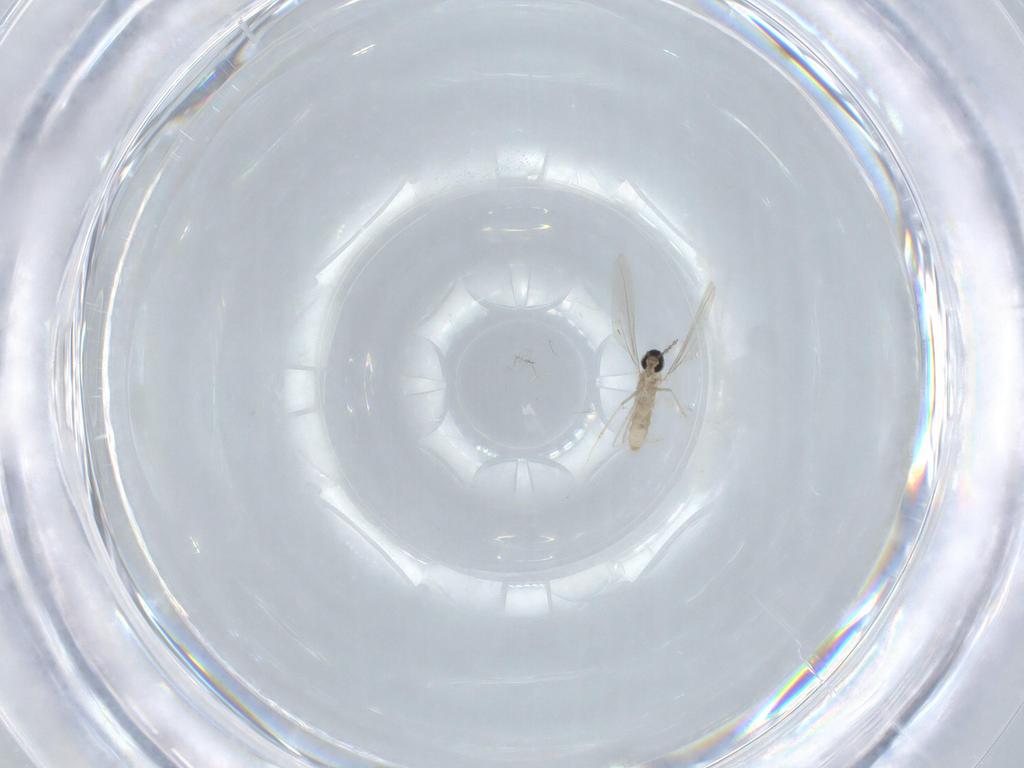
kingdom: Animalia
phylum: Arthropoda
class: Insecta
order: Diptera
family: Cecidomyiidae
